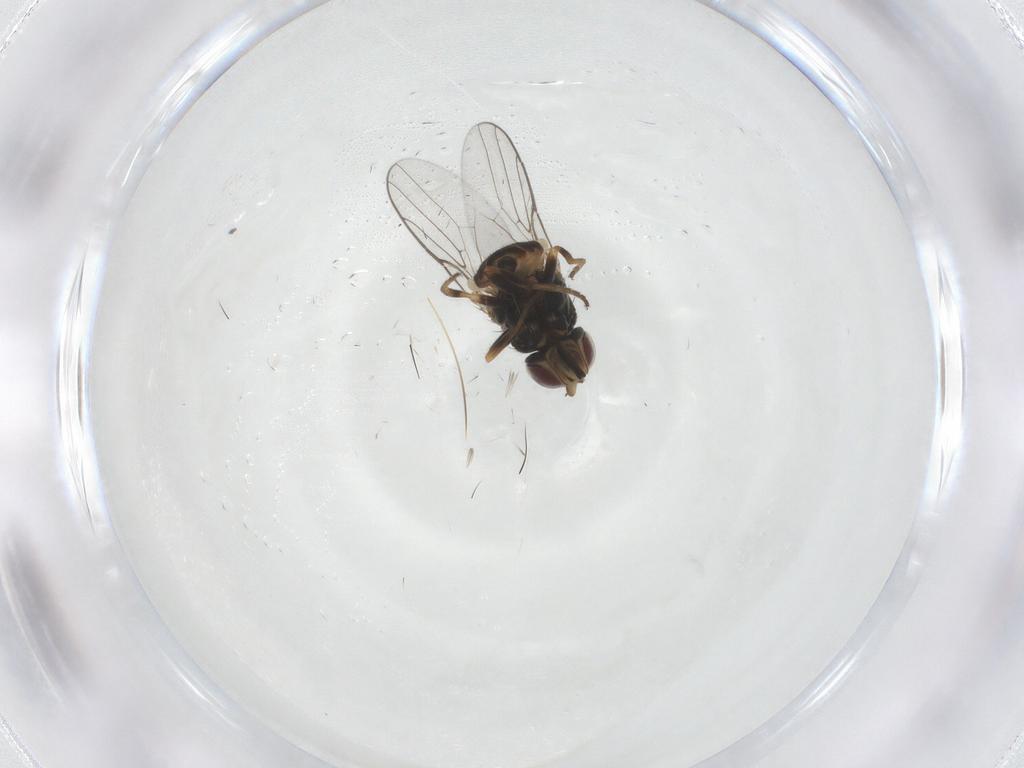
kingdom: Animalia
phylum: Arthropoda
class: Insecta
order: Diptera
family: Chloropidae
